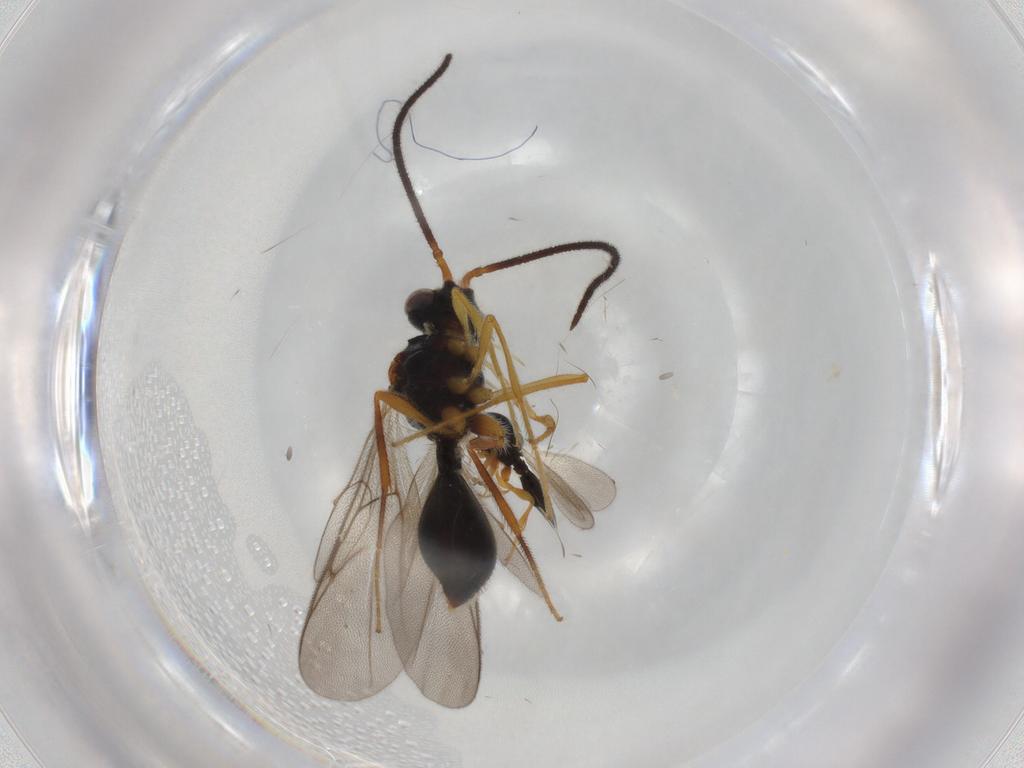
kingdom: Animalia
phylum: Arthropoda
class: Insecta
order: Hymenoptera
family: Platygastridae
